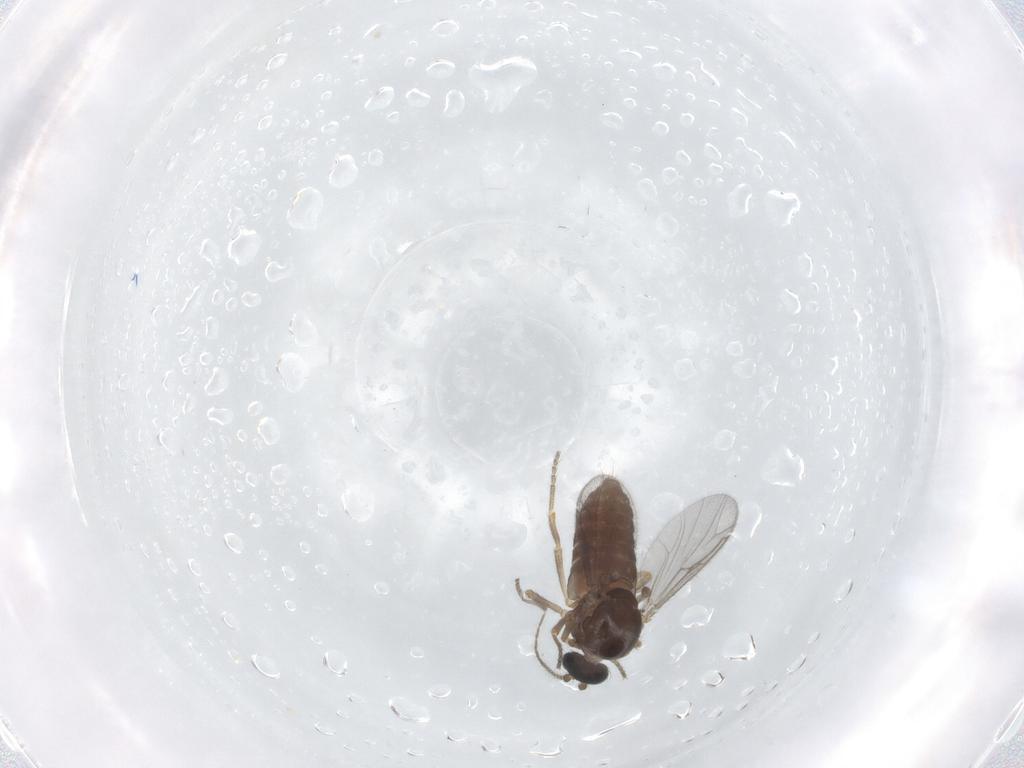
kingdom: Animalia
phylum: Arthropoda
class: Insecta
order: Diptera
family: Ceratopogonidae
